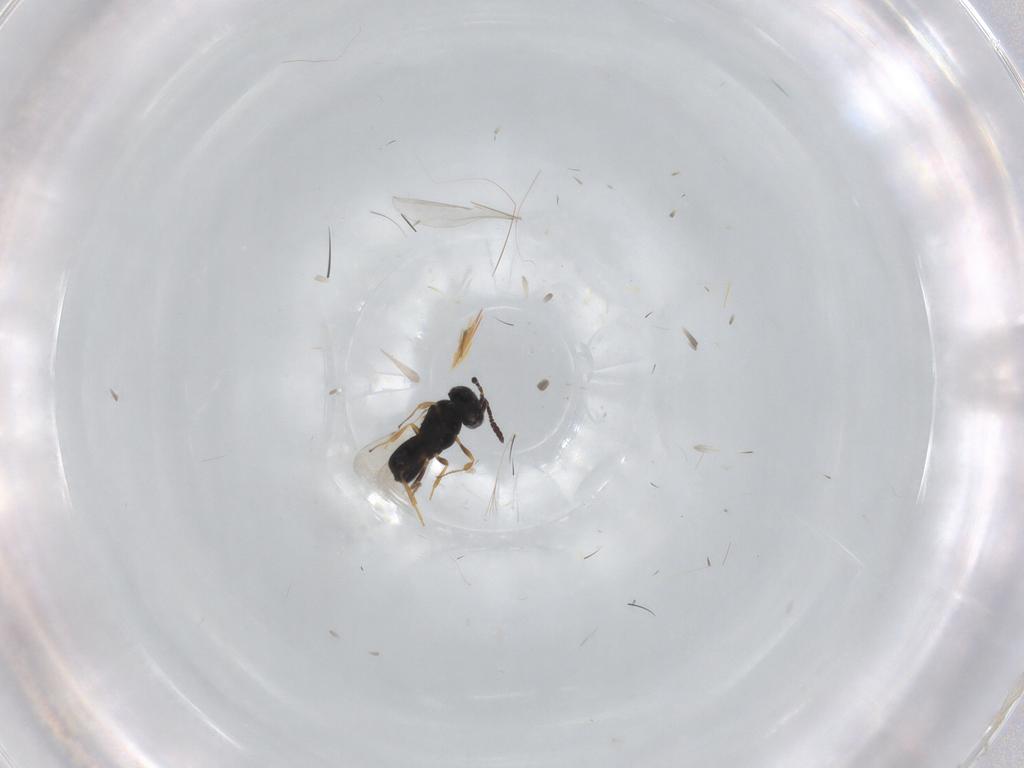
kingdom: Animalia
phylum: Arthropoda
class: Insecta
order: Hymenoptera
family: Scelionidae
